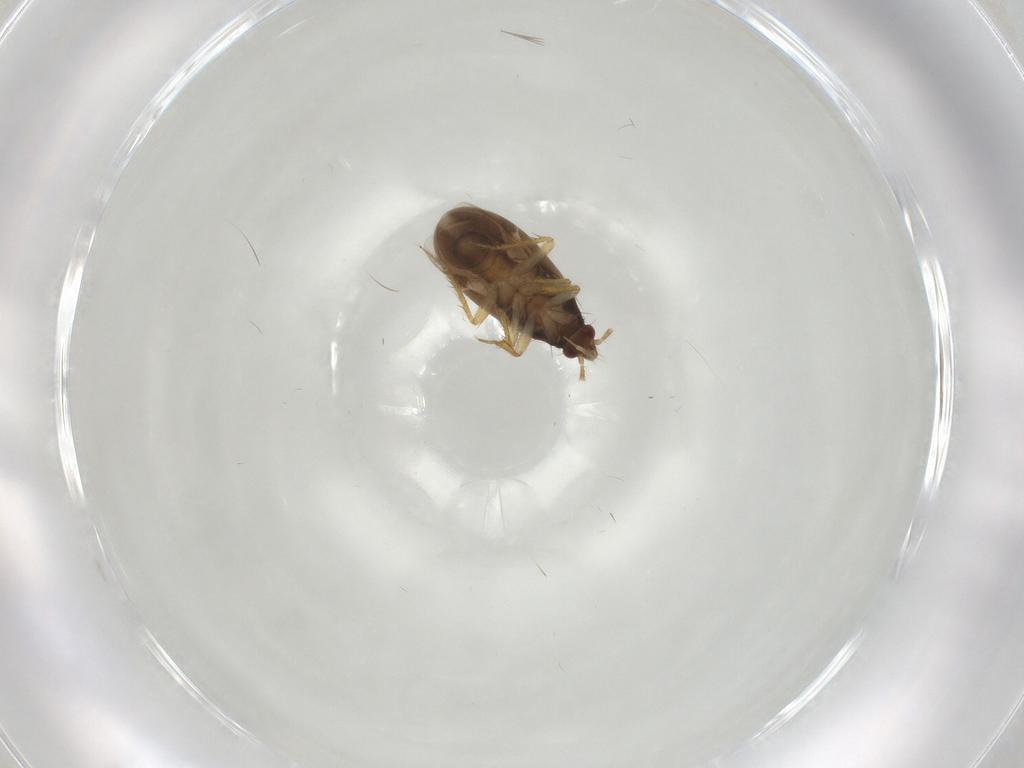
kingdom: Animalia
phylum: Arthropoda
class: Insecta
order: Hemiptera
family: Ceratocombidae
